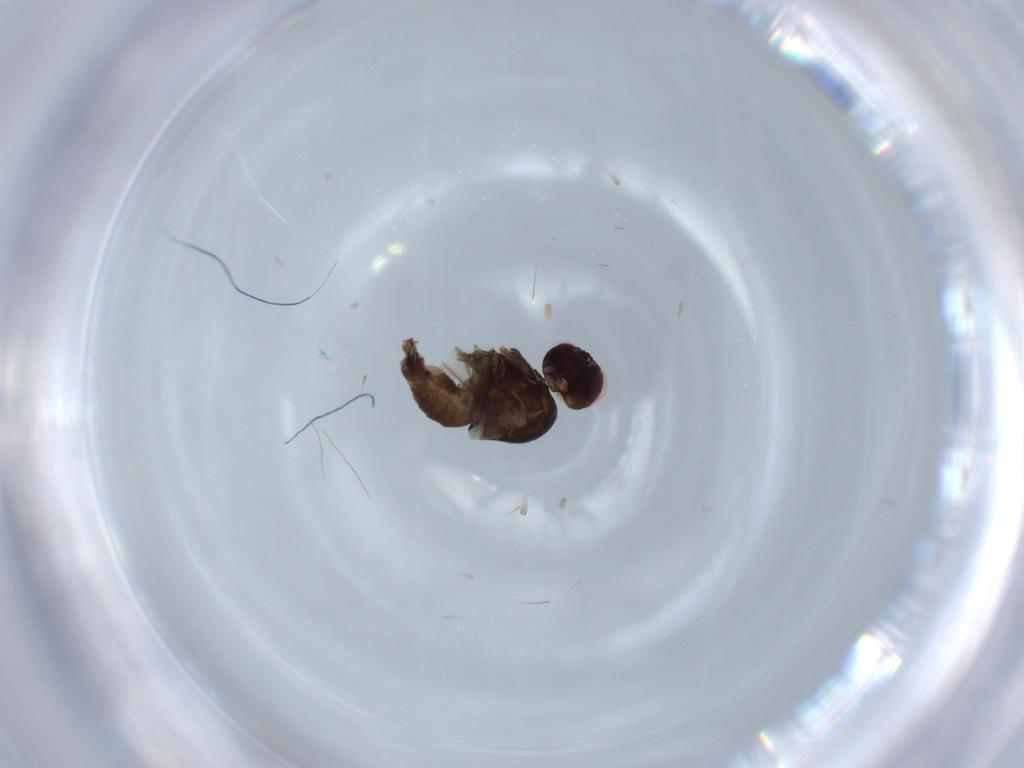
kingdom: Animalia
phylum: Arthropoda
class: Insecta
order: Diptera
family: Agromyzidae
